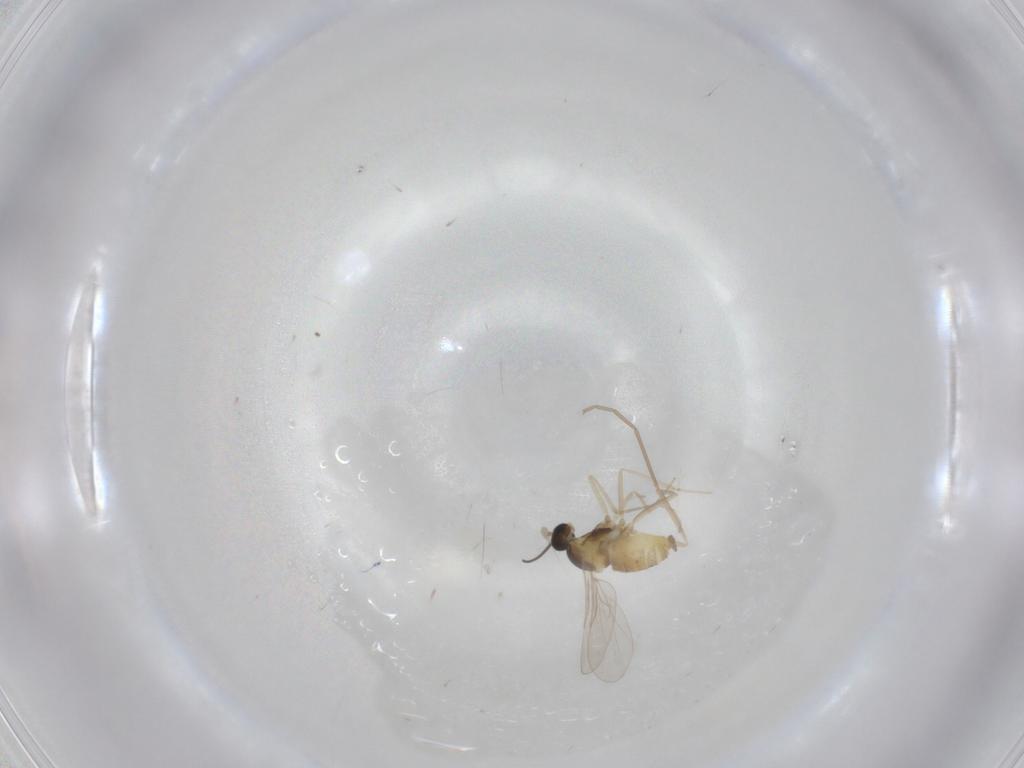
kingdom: Animalia
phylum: Arthropoda
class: Insecta
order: Diptera
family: Cecidomyiidae
